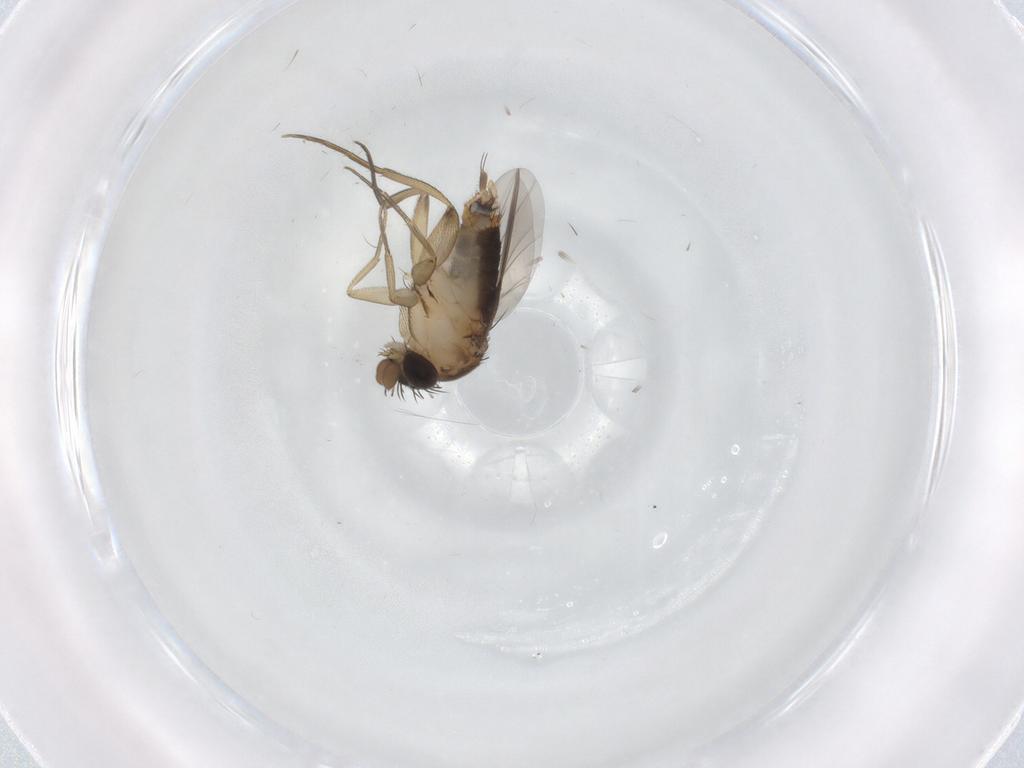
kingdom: Animalia
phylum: Arthropoda
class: Insecta
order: Diptera
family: Phoridae
